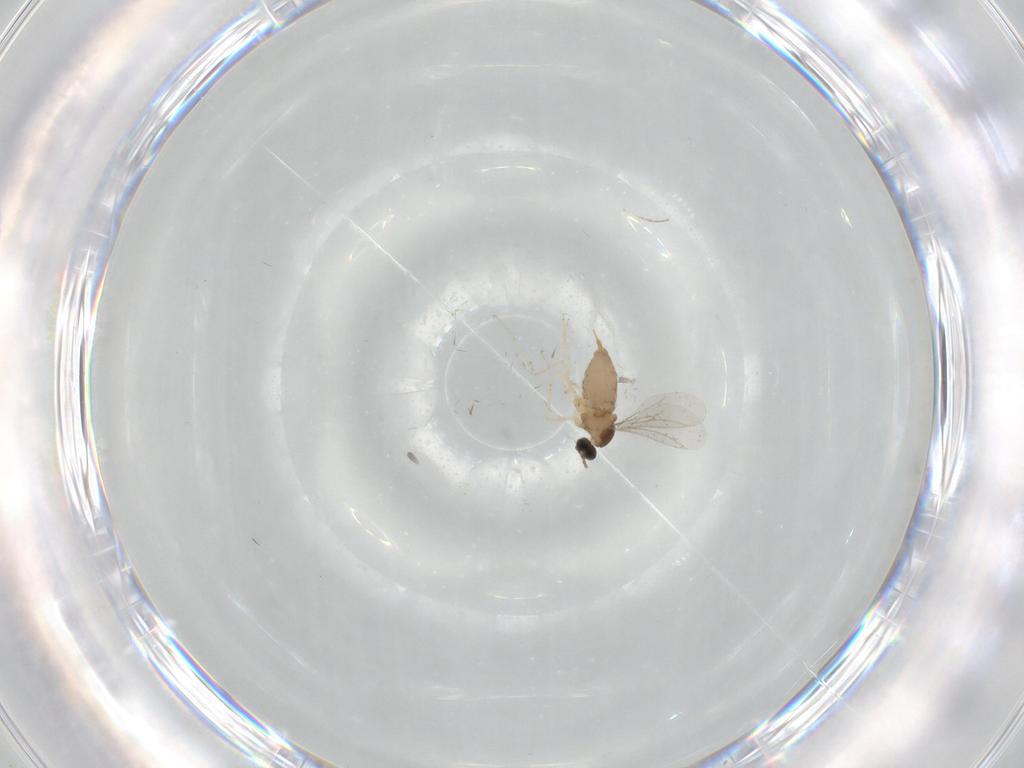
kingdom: Animalia
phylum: Arthropoda
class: Insecta
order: Diptera
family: Cecidomyiidae
